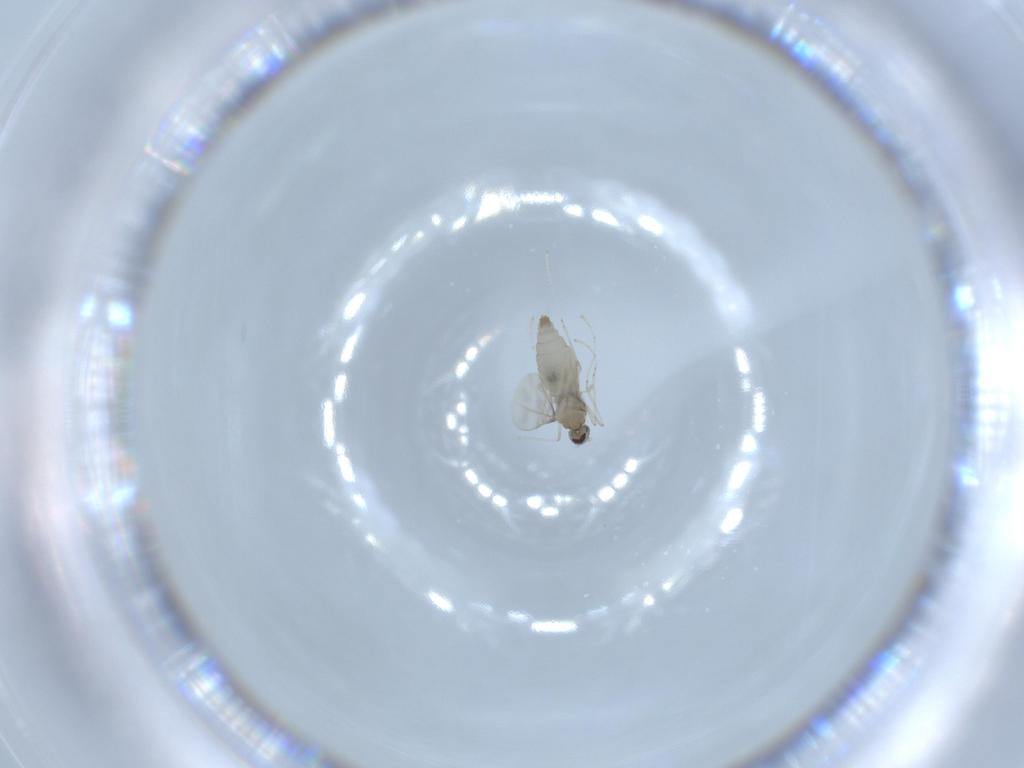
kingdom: Animalia
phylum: Arthropoda
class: Insecta
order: Diptera
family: Cecidomyiidae
